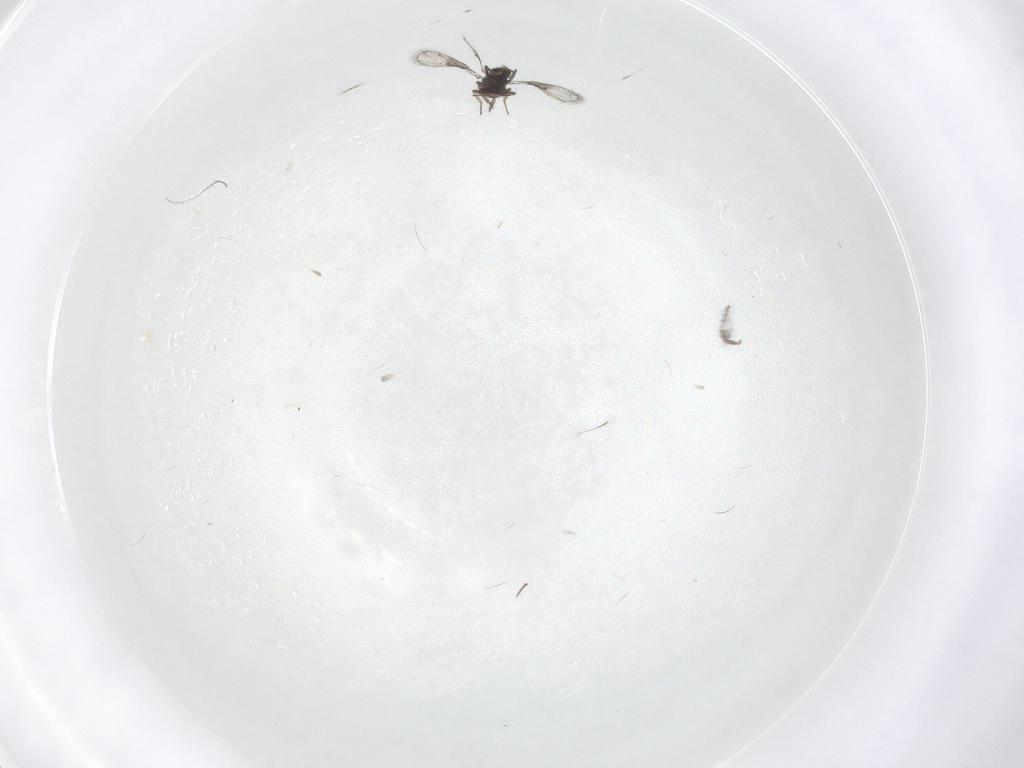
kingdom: Animalia
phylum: Arthropoda
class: Insecta
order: Hymenoptera
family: Trichogrammatidae
